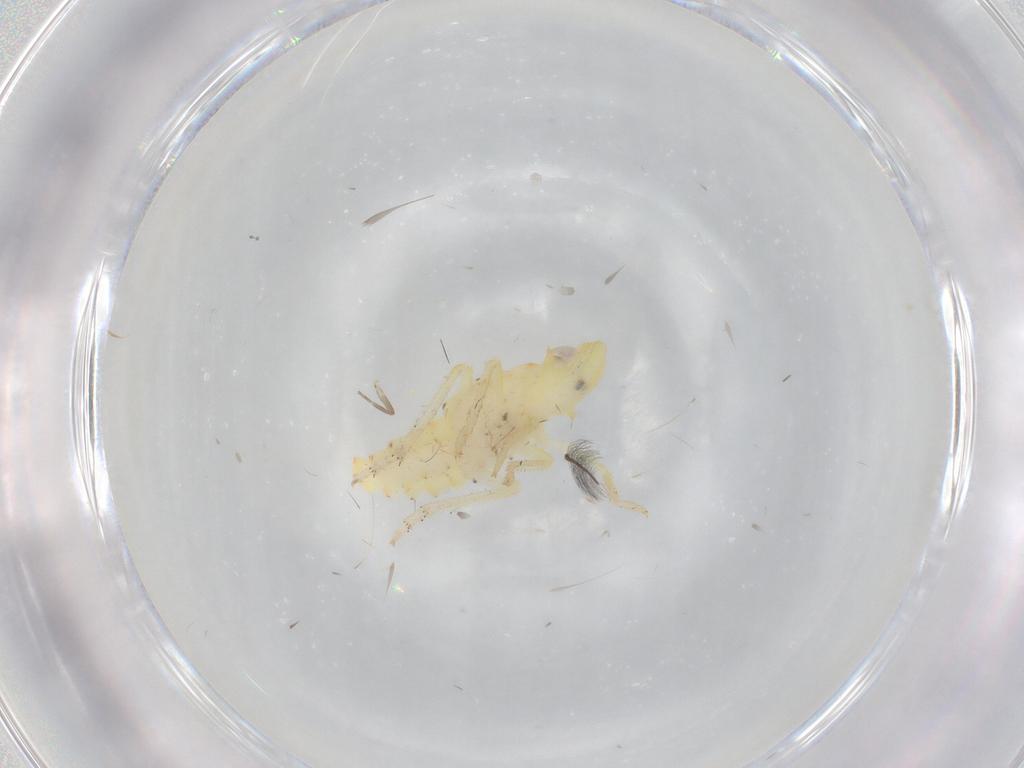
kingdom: Animalia
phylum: Arthropoda
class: Insecta
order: Hemiptera
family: Tropiduchidae
